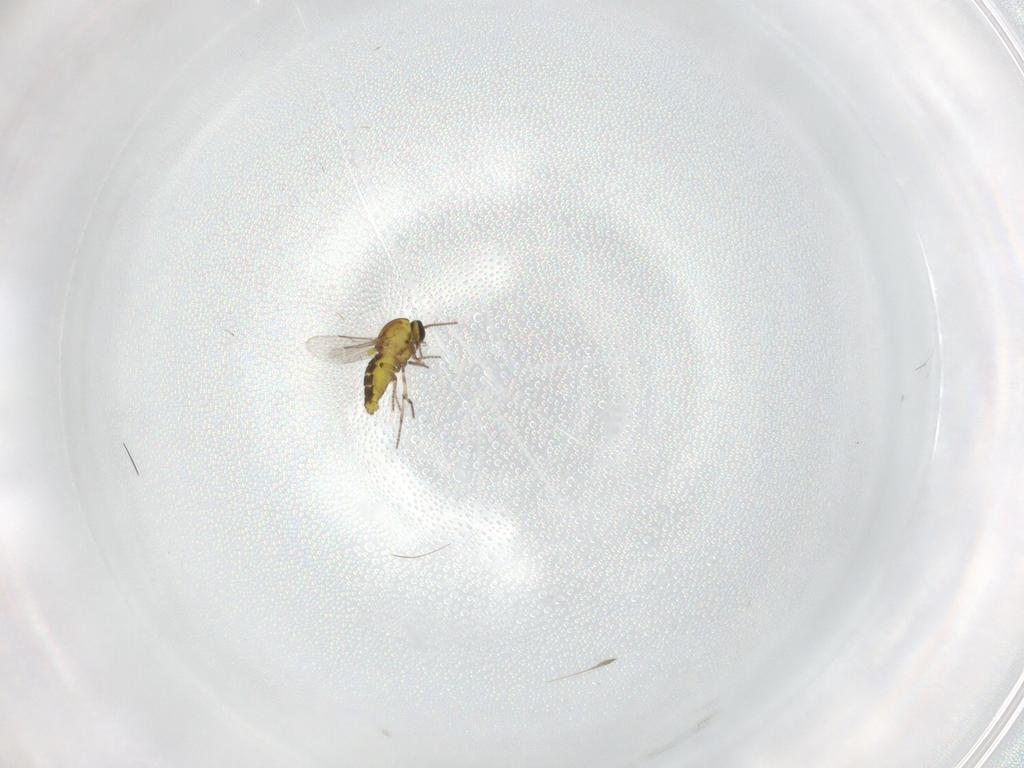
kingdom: Animalia
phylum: Arthropoda
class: Insecta
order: Diptera
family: Ceratopogonidae
